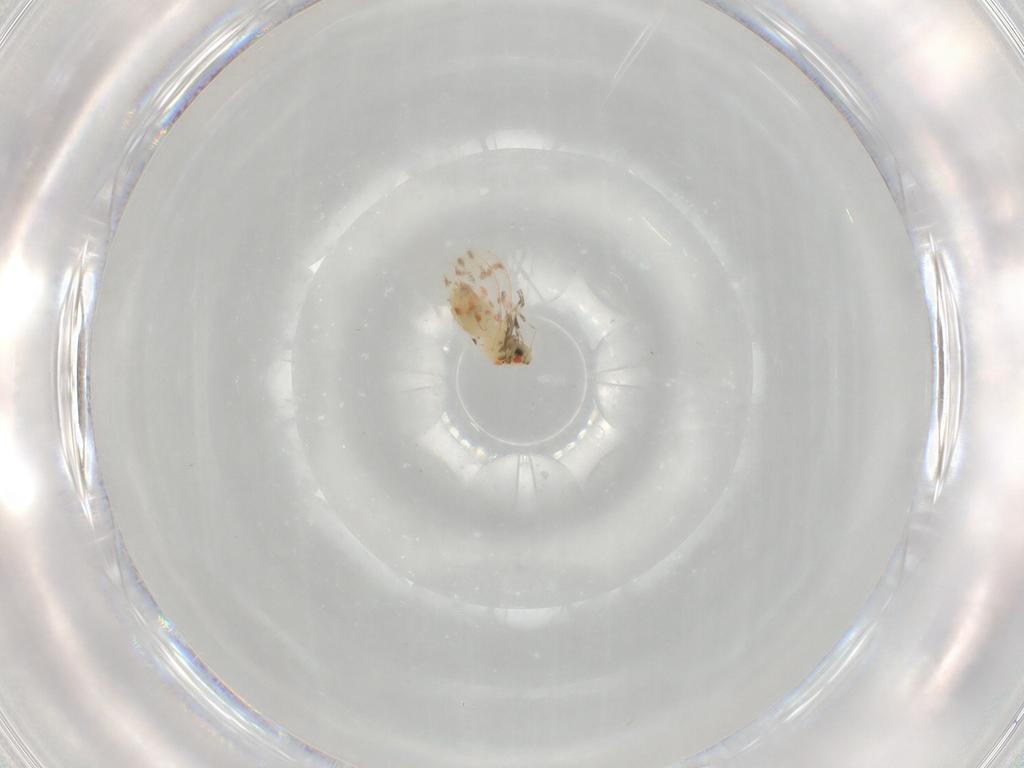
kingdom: Animalia
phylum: Arthropoda
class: Insecta
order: Hemiptera
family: Aleyrodidae
